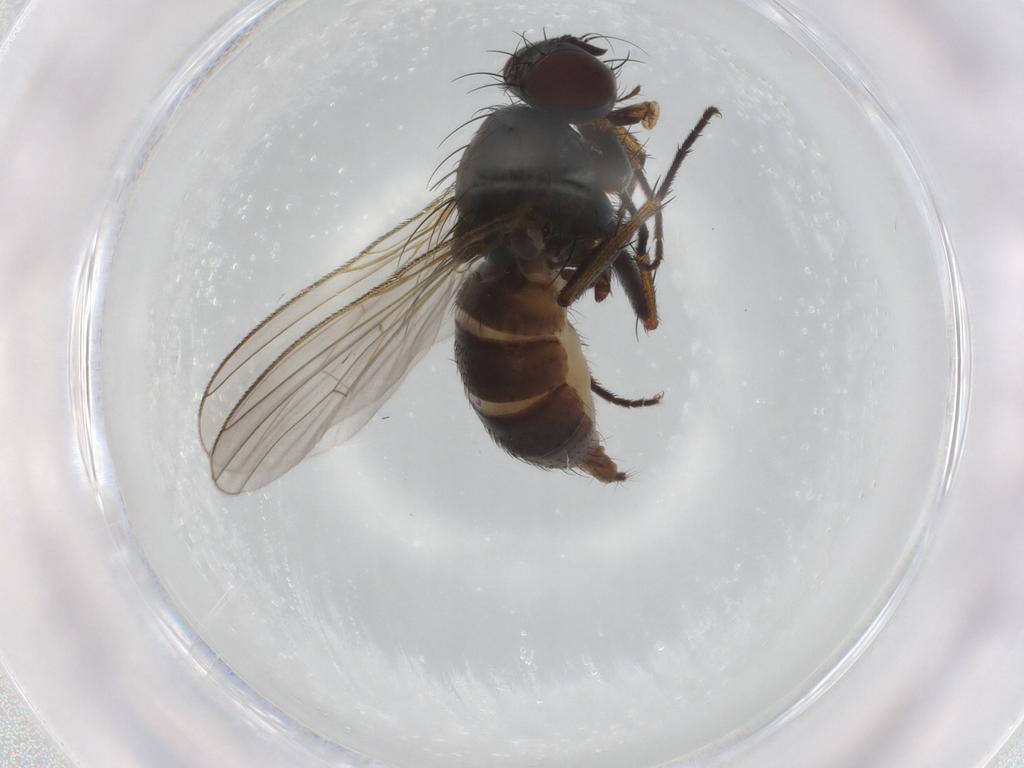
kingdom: Animalia
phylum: Arthropoda
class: Insecta
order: Diptera
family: Muscidae
